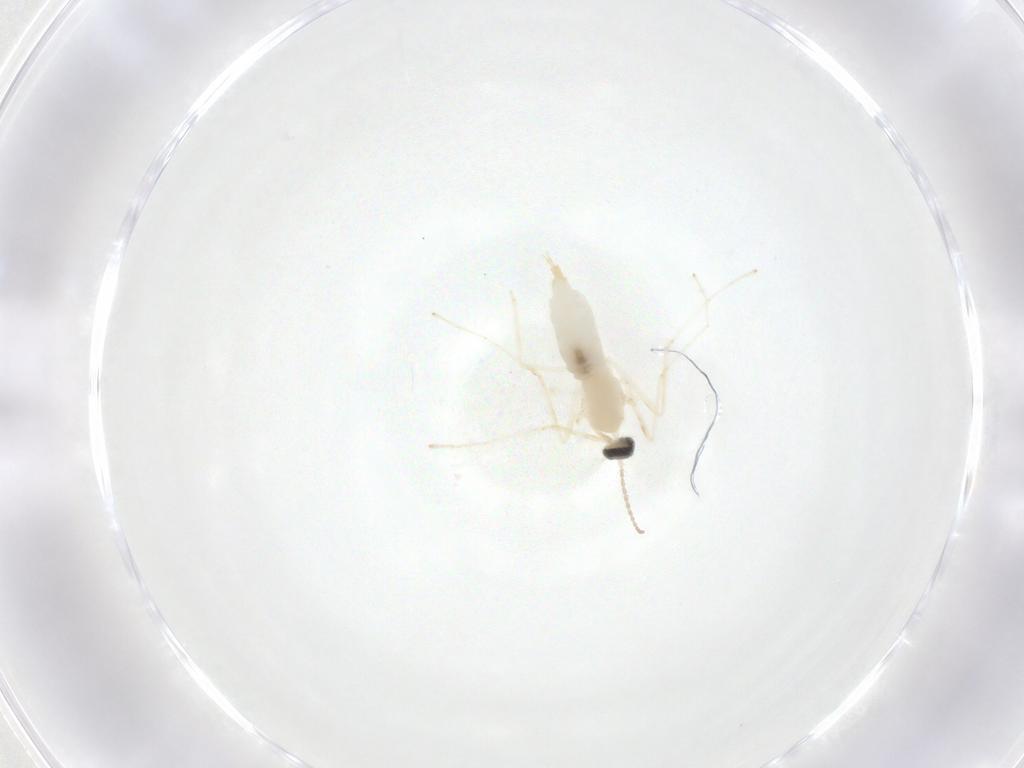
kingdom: Animalia
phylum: Arthropoda
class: Insecta
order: Diptera
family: Cecidomyiidae
